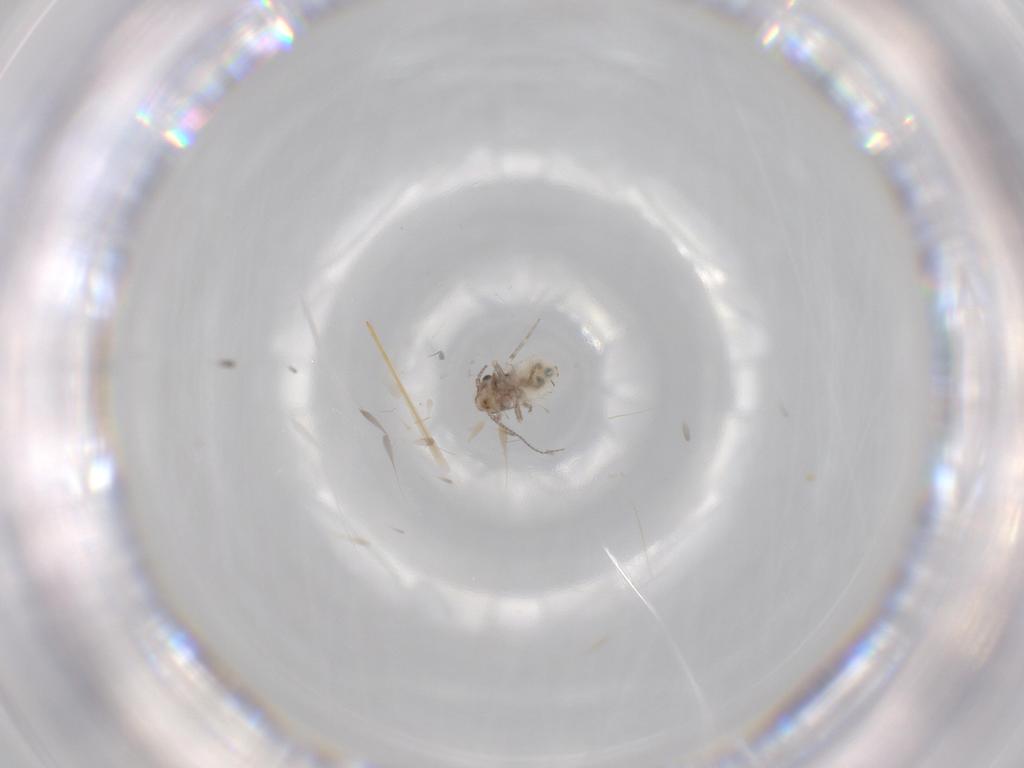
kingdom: Animalia
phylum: Arthropoda
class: Insecta
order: Psocodea
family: Lepidopsocidae
